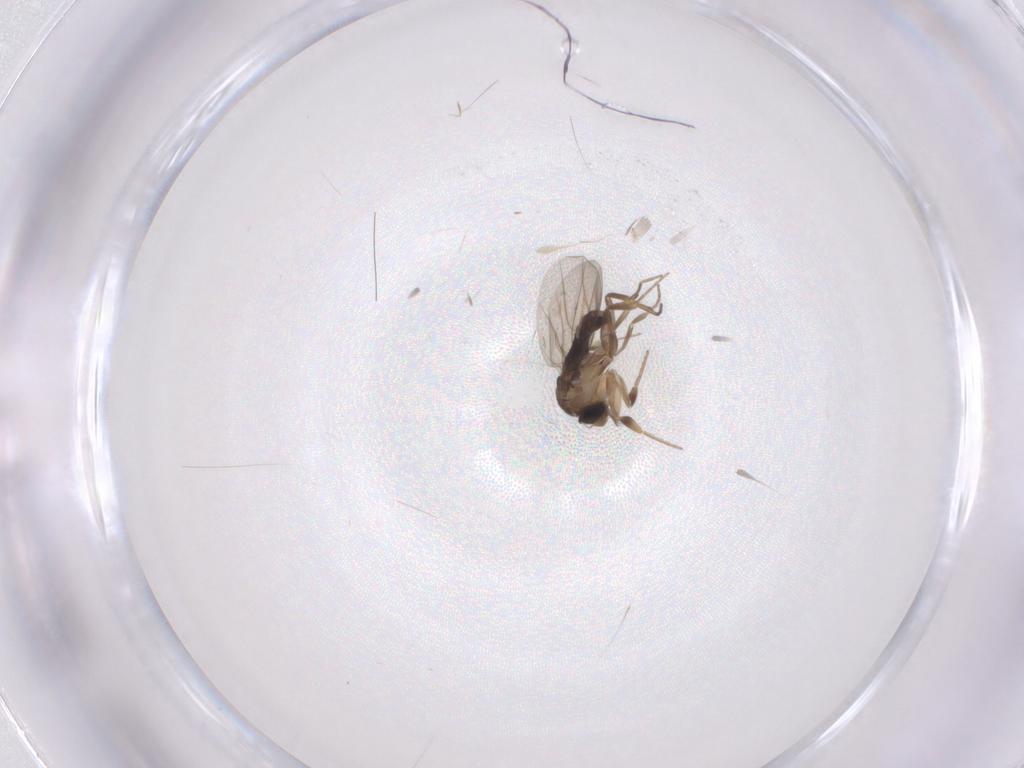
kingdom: Animalia
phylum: Arthropoda
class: Insecta
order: Diptera
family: Phoridae
